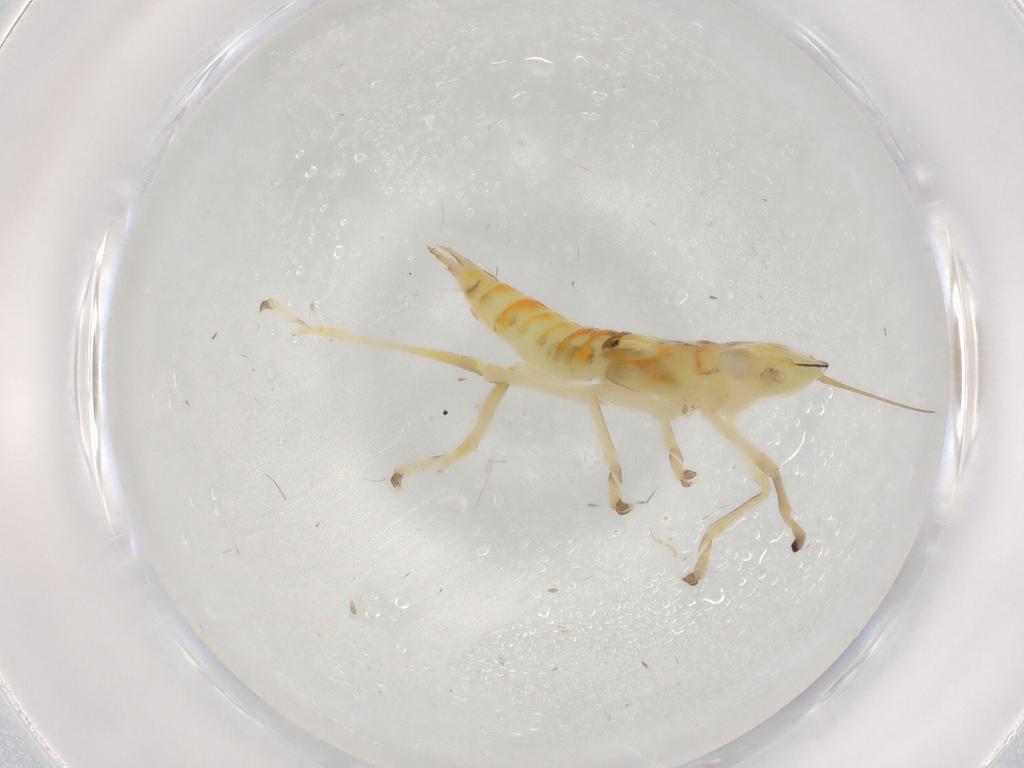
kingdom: Animalia
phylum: Arthropoda
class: Insecta
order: Hemiptera
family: Cicadellidae
